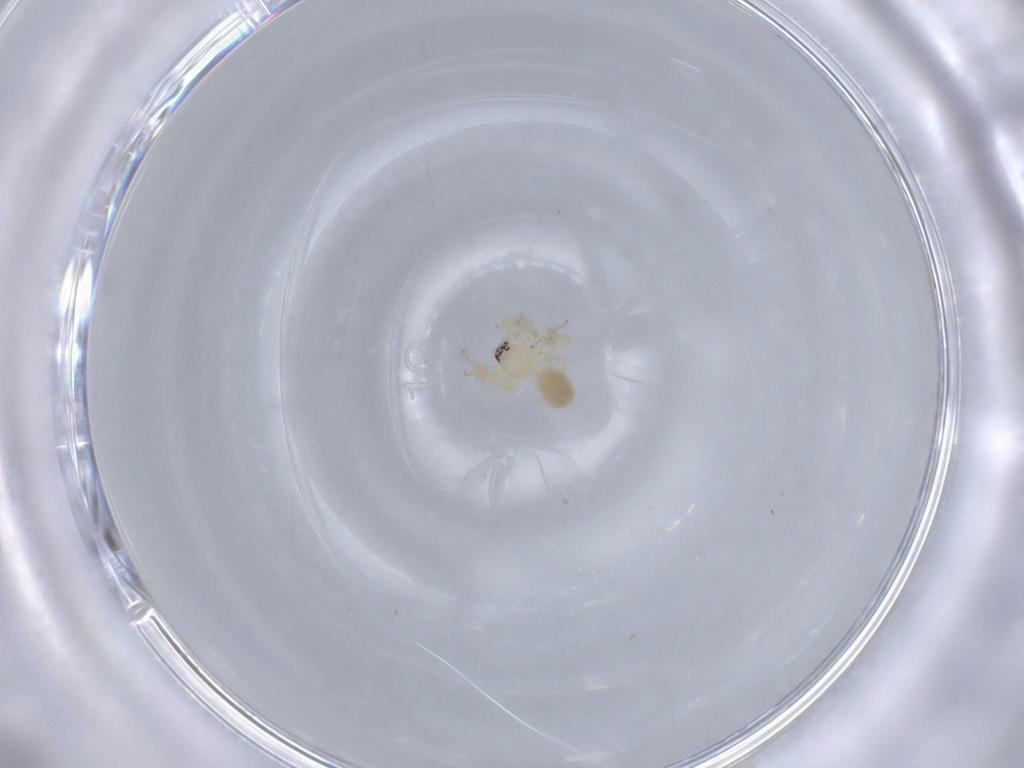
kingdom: Animalia
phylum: Arthropoda
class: Arachnida
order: Araneae
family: Oonopidae
